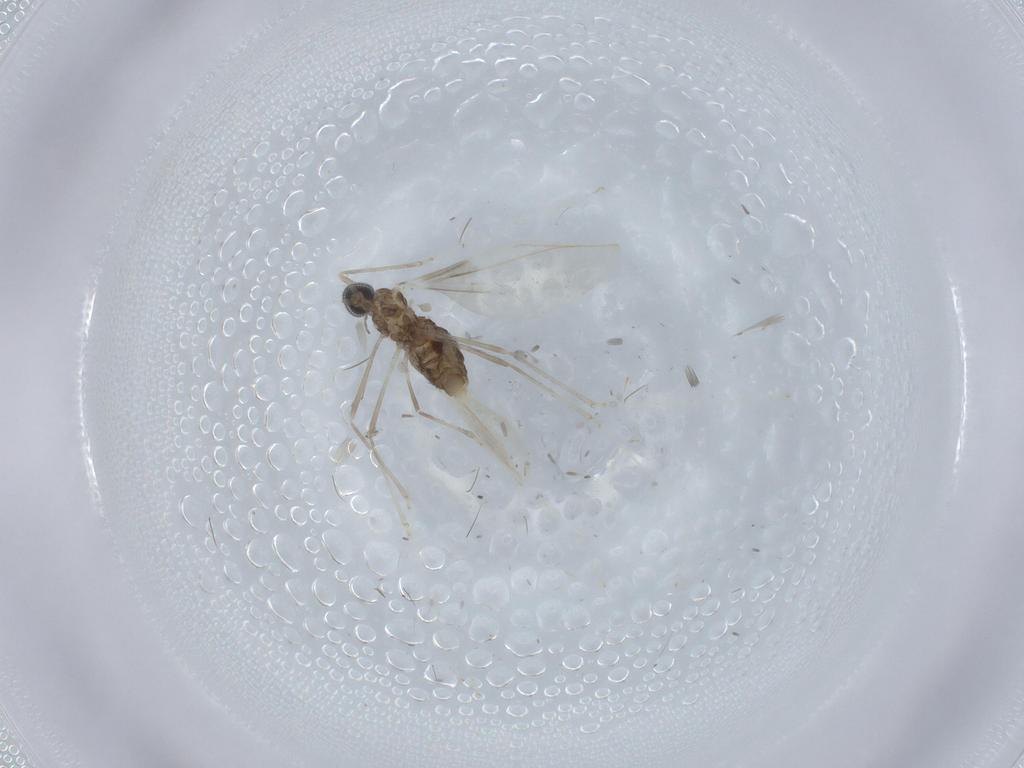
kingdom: Animalia
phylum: Arthropoda
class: Insecta
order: Diptera
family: Cecidomyiidae
